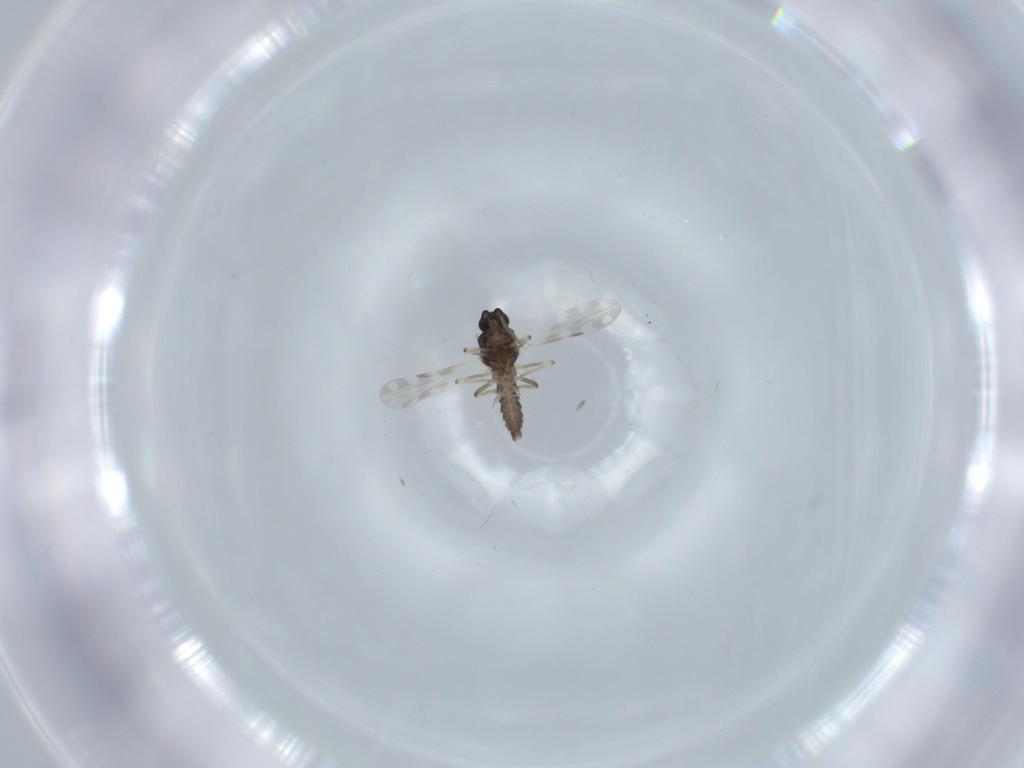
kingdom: Animalia
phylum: Arthropoda
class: Insecta
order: Diptera
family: Ceratopogonidae
